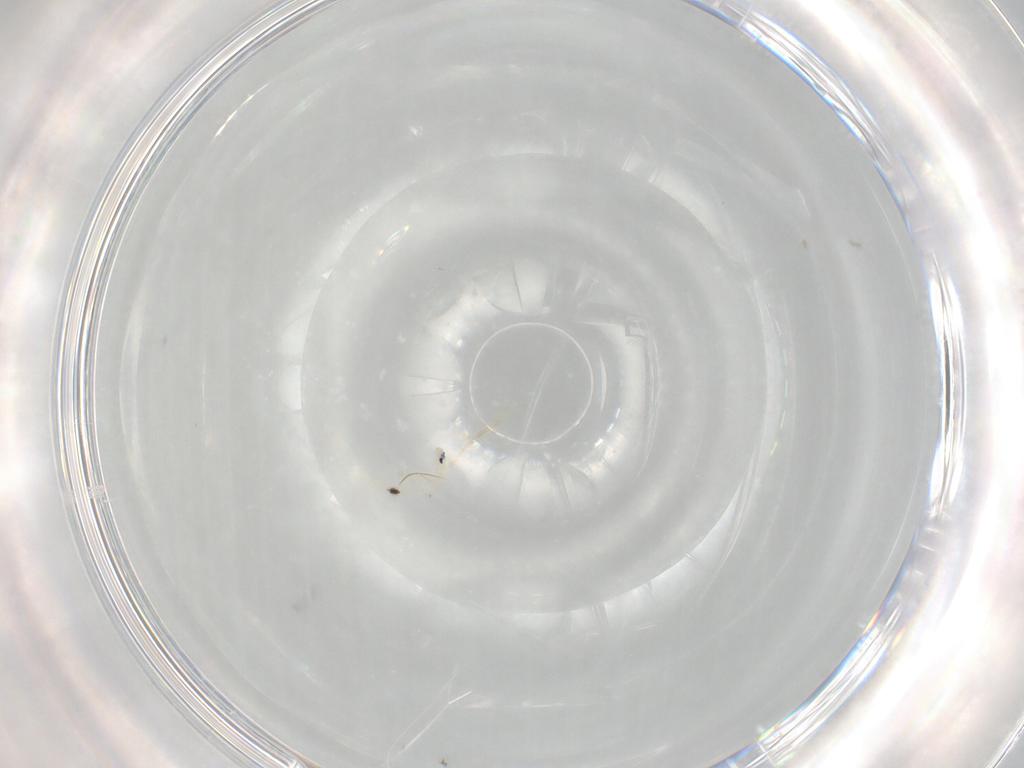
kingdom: Animalia
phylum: Arthropoda
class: Collembola
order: Entomobryomorpha
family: Entomobryidae
